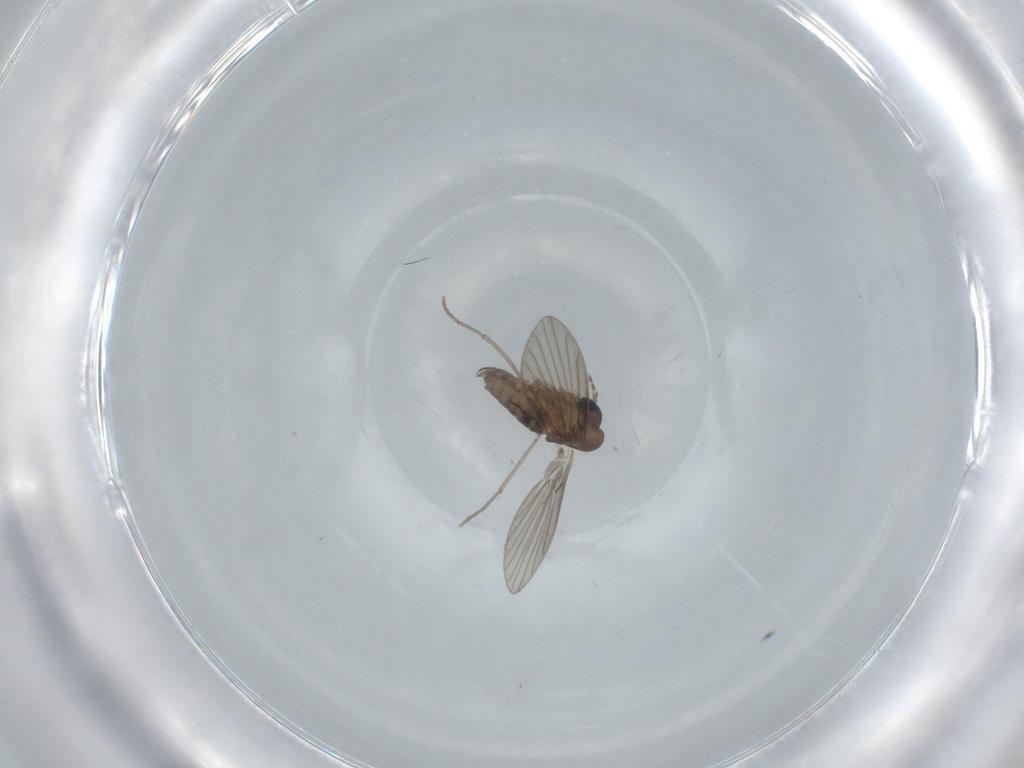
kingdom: Animalia
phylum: Arthropoda
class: Insecta
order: Diptera
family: Psychodidae
